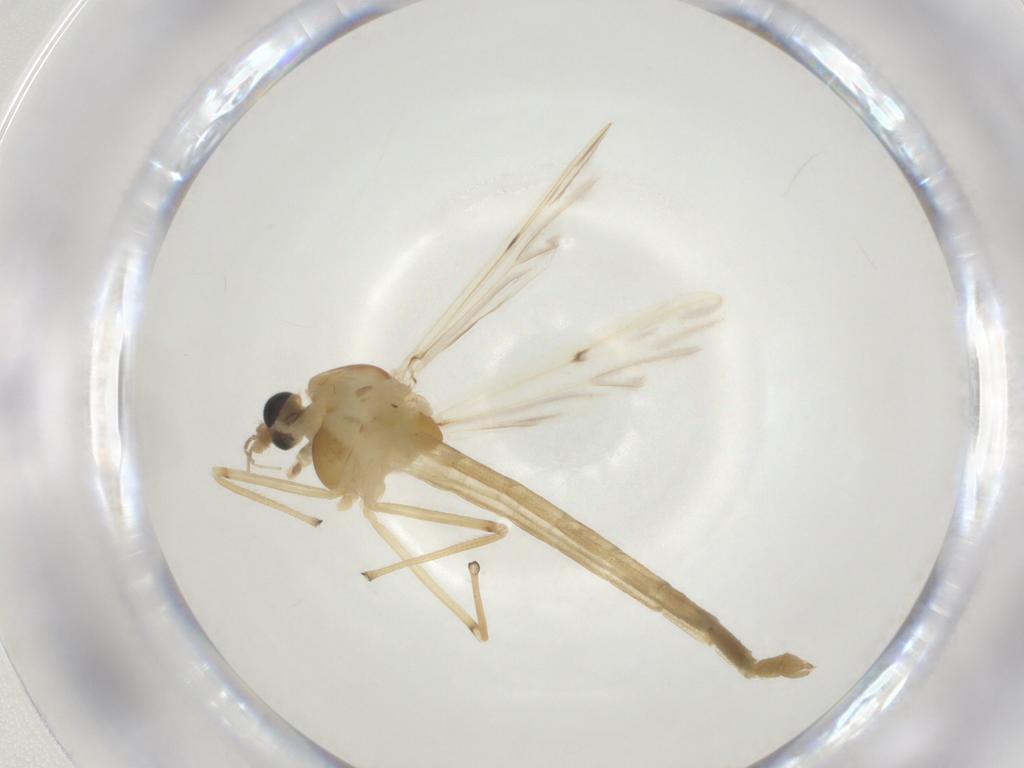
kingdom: Animalia
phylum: Arthropoda
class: Insecta
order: Diptera
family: Chironomidae
